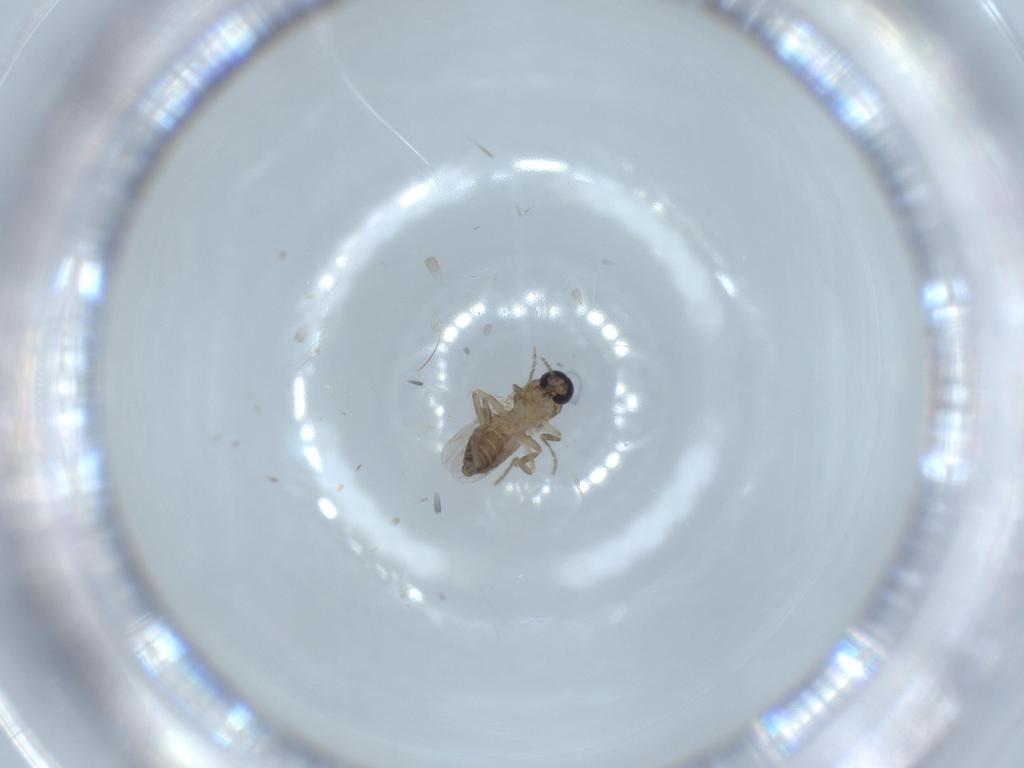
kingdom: Animalia
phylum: Arthropoda
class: Insecta
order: Diptera
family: Ceratopogonidae
